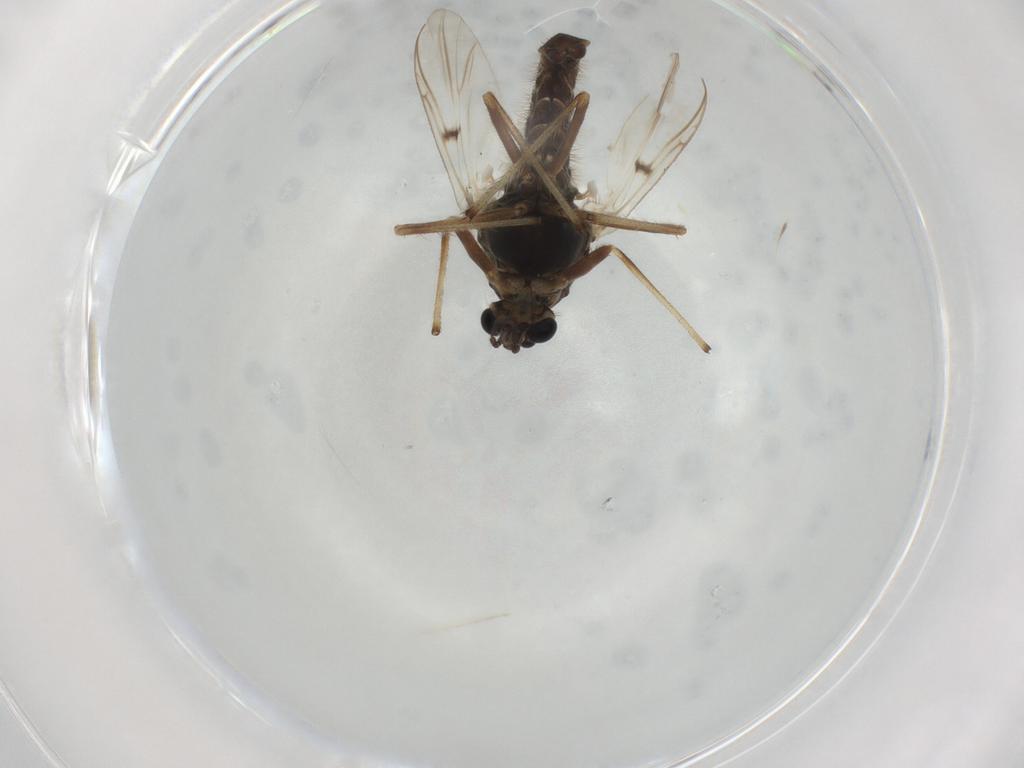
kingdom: Animalia
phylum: Arthropoda
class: Insecta
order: Diptera
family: Chironomidae
